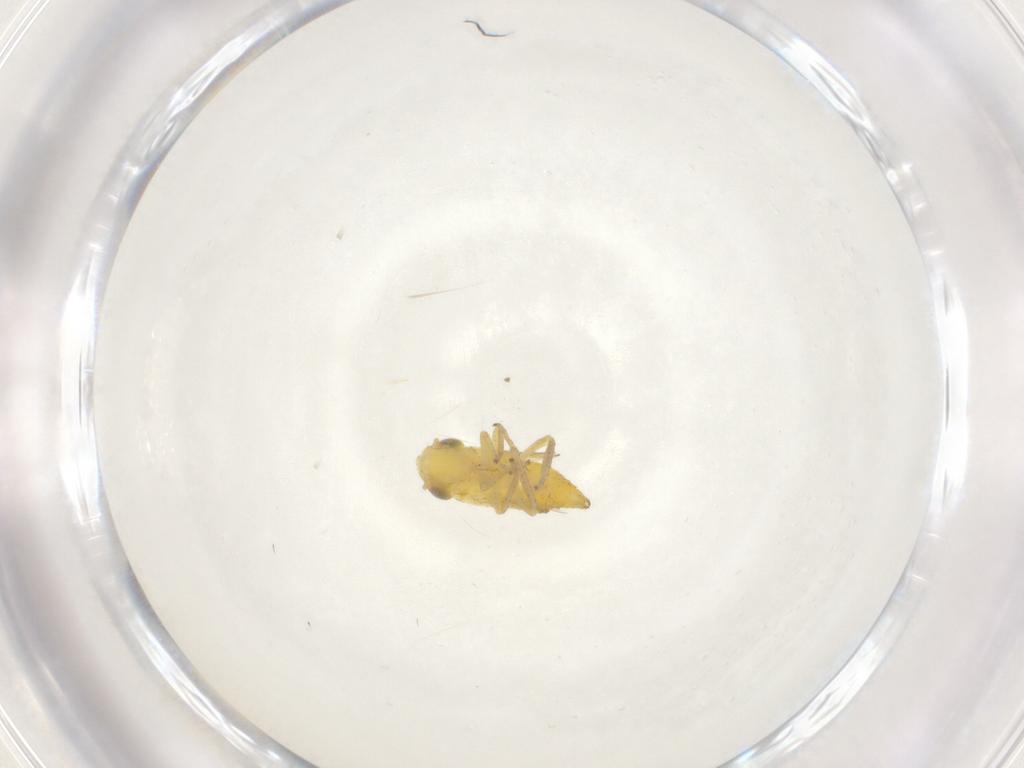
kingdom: Animalia
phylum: Arthropoda
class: Insecta
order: Hemiptera
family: Cicadellidae
